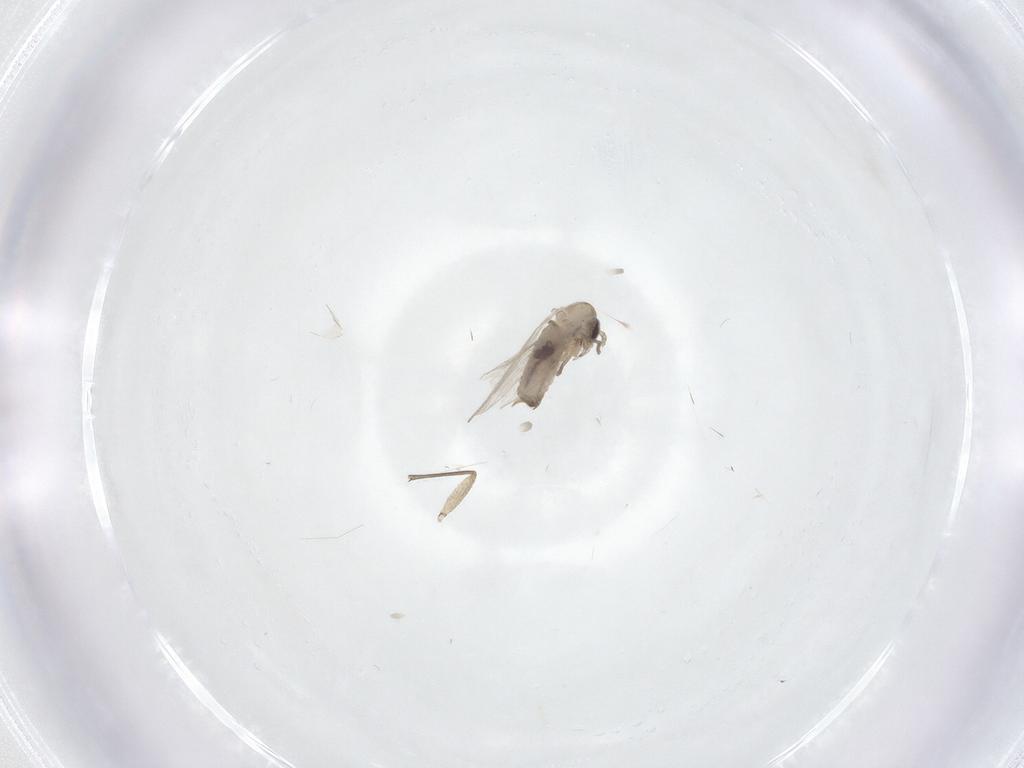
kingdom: Animalia
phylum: Arthropoda
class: Insecta
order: Diptera
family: Psychodidae
